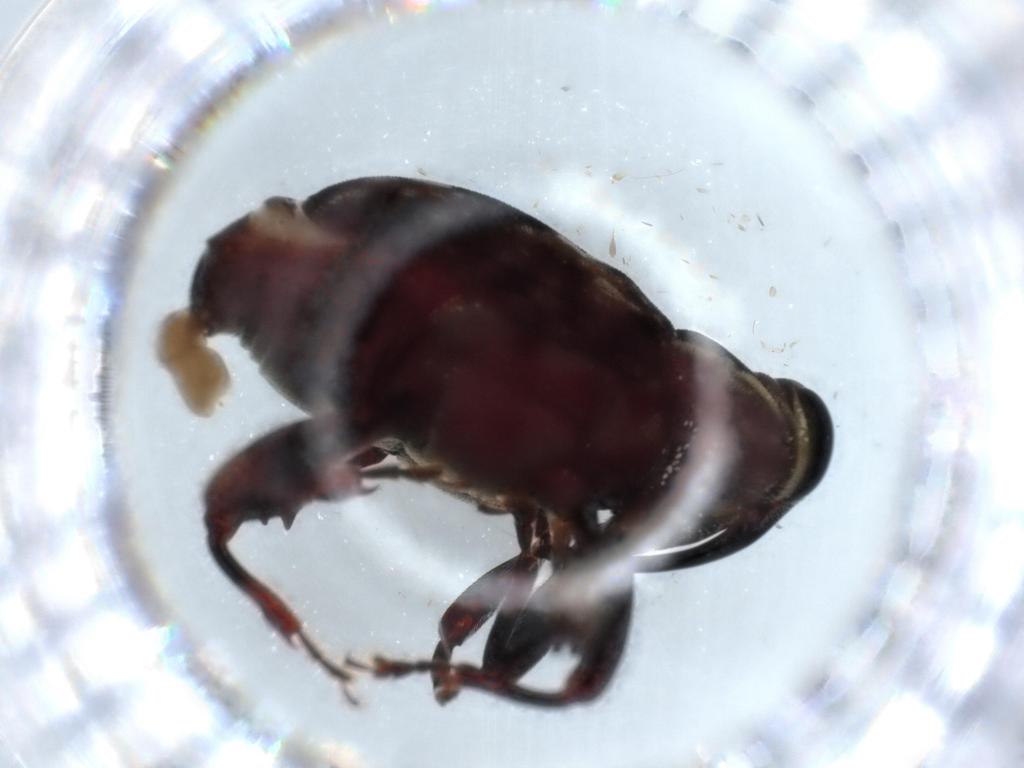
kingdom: Animalia
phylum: Arthropoda
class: Insecta
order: Coleoptera
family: Curculionidae
